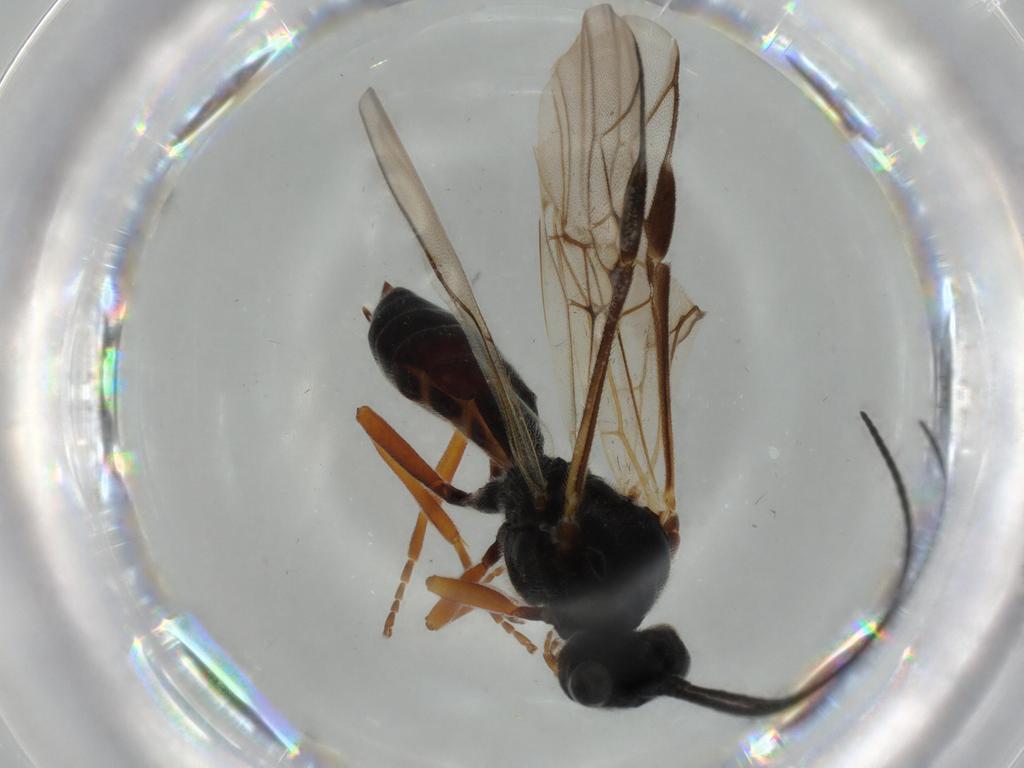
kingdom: Animalia
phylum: Arthropoda
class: Insecta
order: Hymenoptera
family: Braconidae
